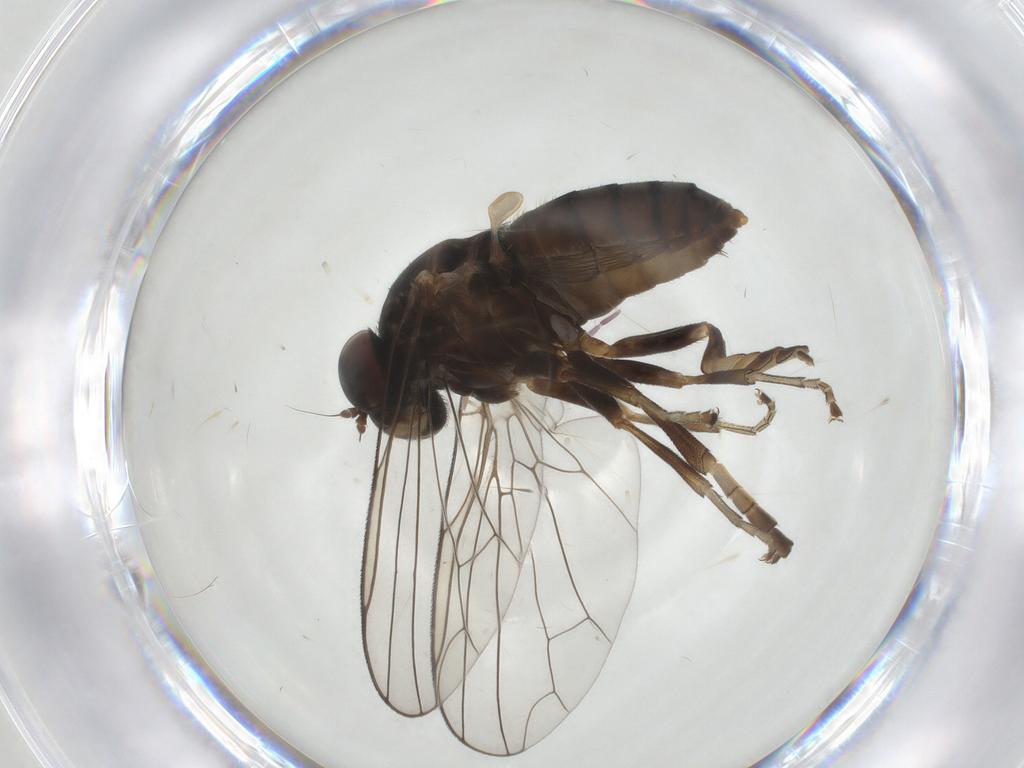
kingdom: Animalia
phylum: Arthropoda
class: Insecta
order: Diptera
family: Platypezidae
